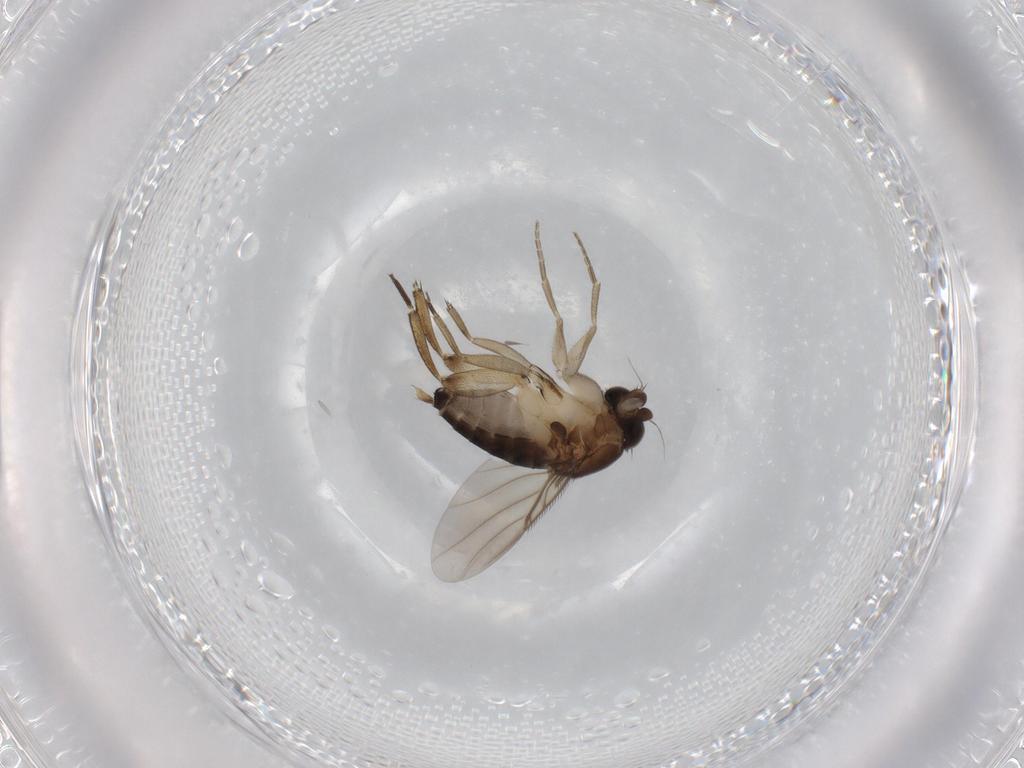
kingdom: Animalia
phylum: Arthropoda
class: Insecta
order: Diptera
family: Phoridae
